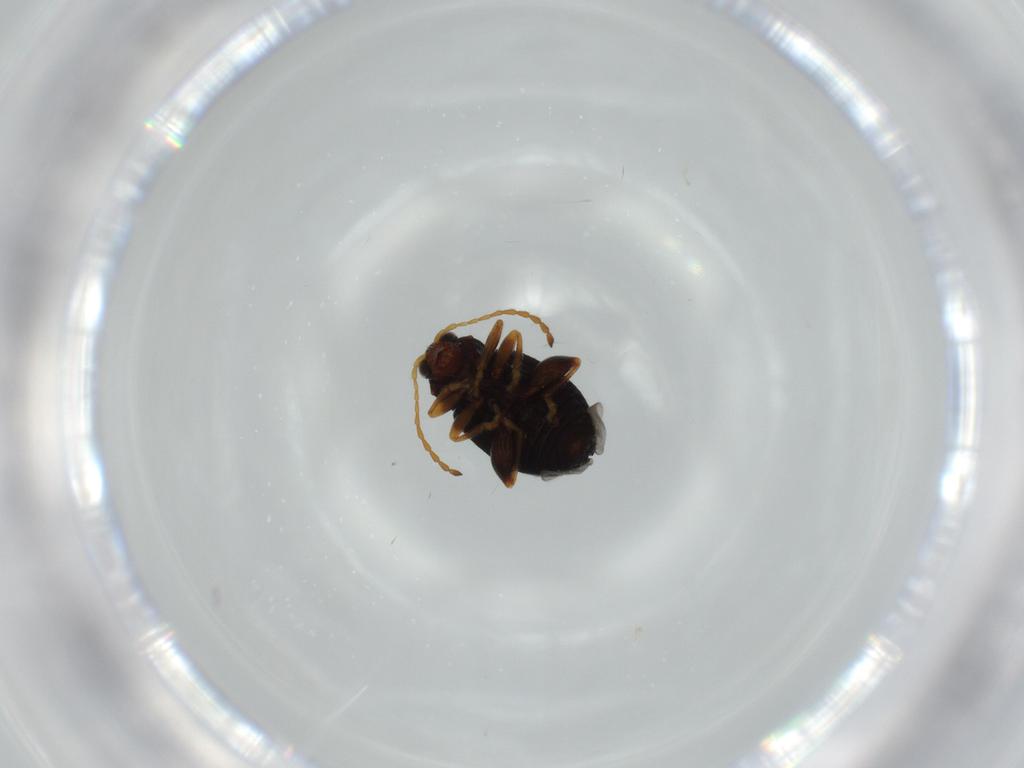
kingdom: Animalia
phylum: Arthropoda
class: Insecta
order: Coleoptera
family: Chrysomelidae
